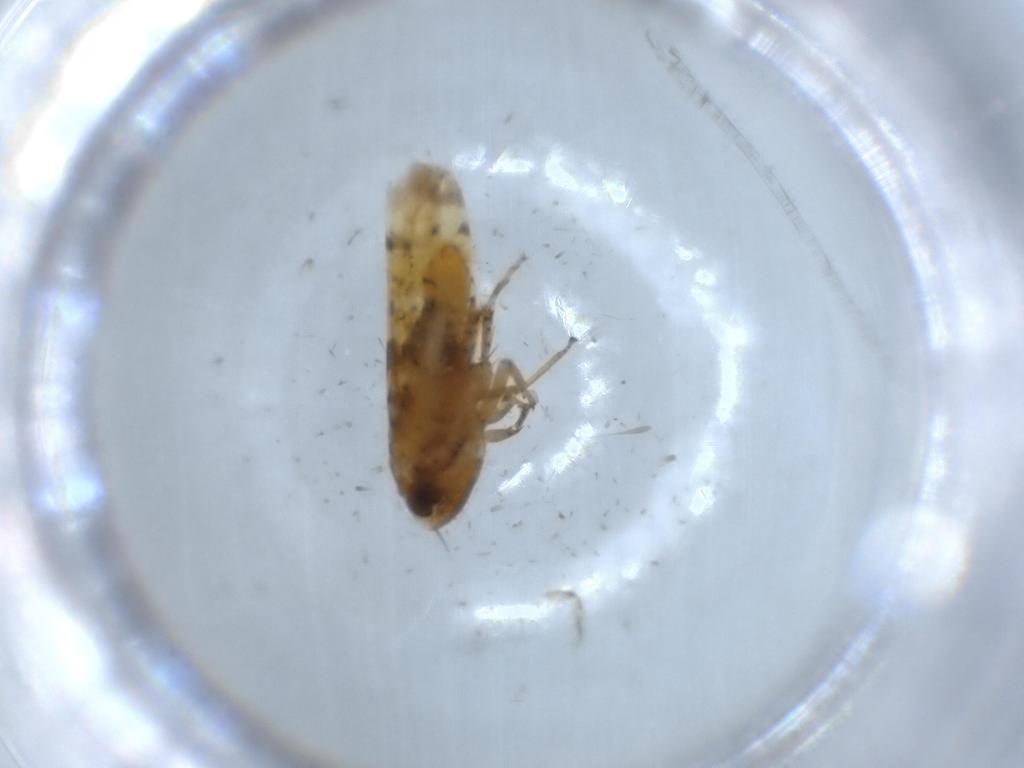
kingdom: Animalia
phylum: Arthropoda
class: Insecta
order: Hemiptera
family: Cicadellidae
